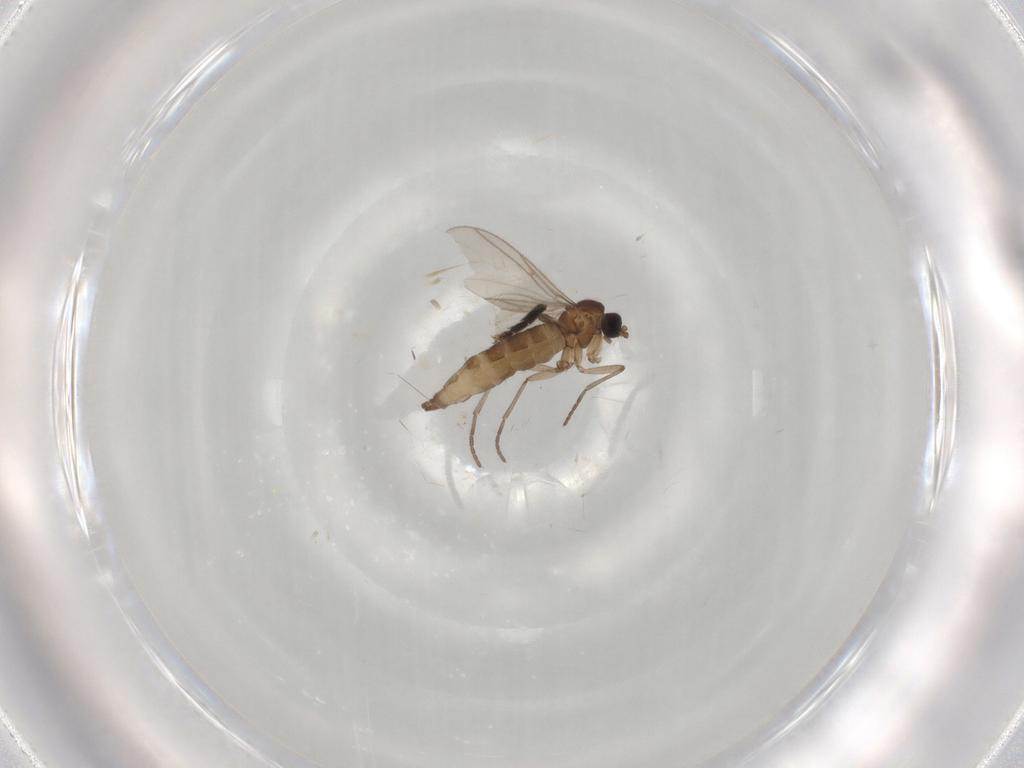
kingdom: Animalia
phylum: Arthropoda
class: Insecta
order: Diptera
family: Tachinidae
